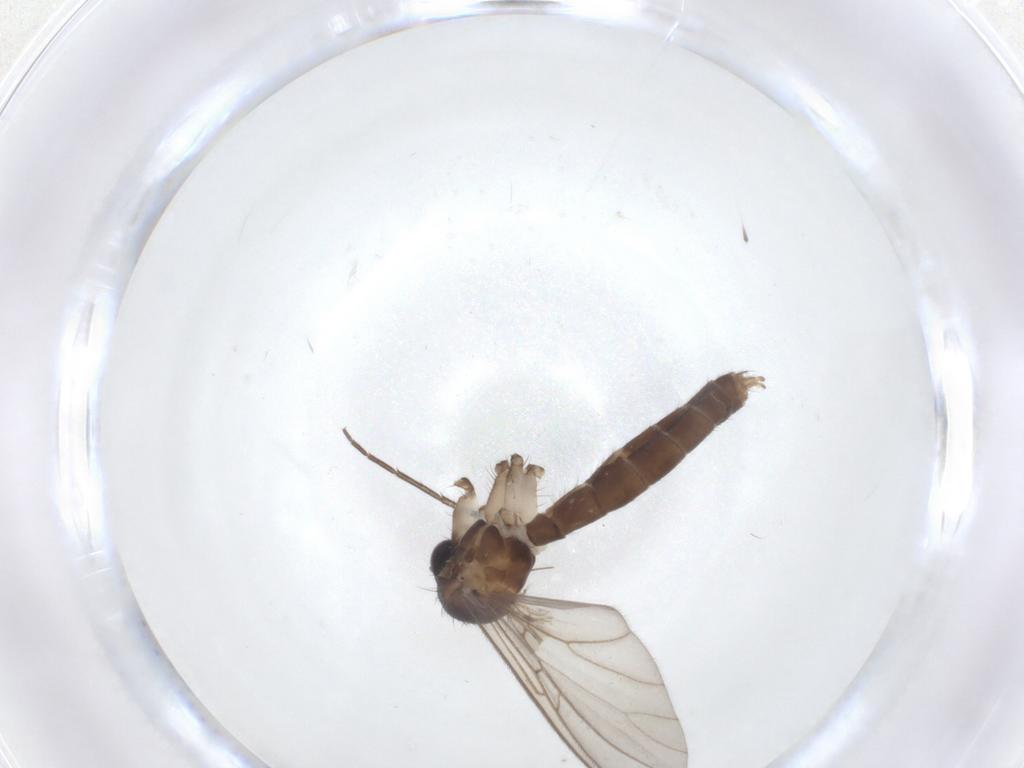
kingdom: Animalia
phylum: Arthropoda
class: Insecta
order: Diptera
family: Mycetophilidae
